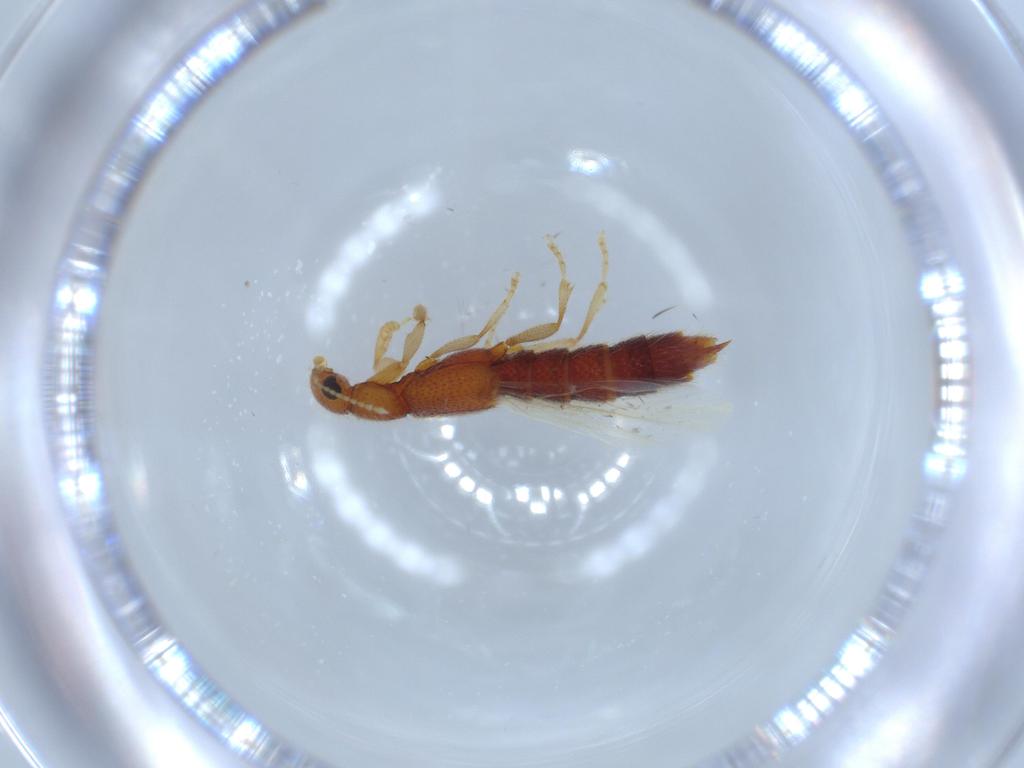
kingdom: Animalia
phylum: Arthropoda
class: Insecta
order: Coleoptera
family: Staphylinidae
